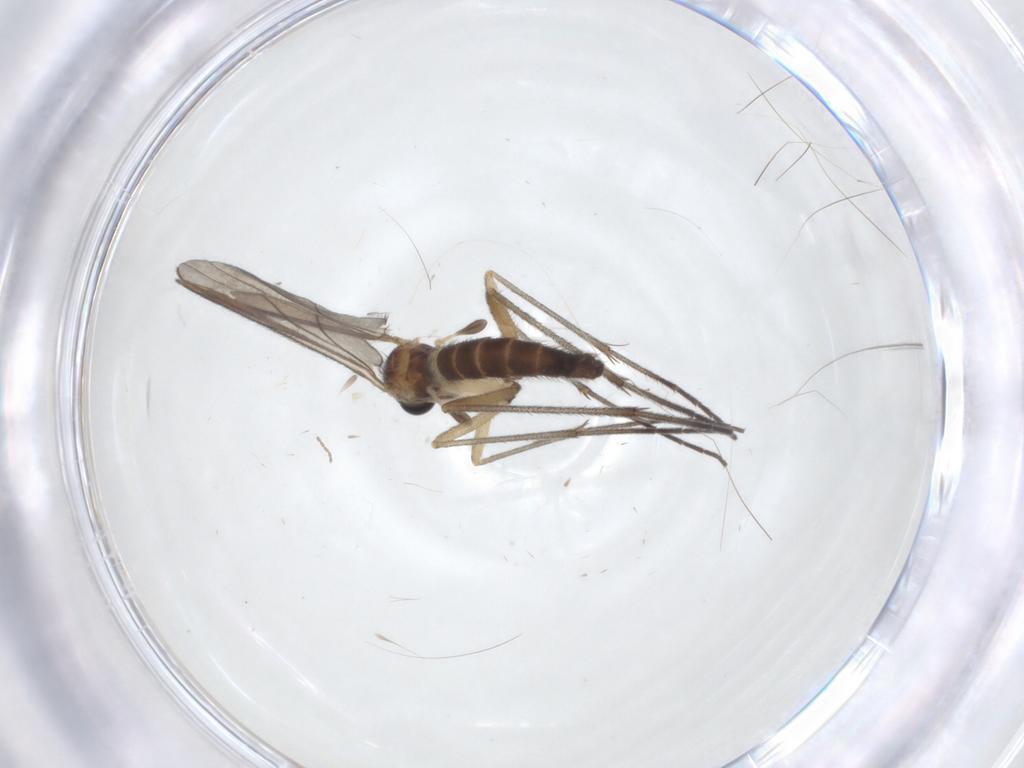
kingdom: Animalia
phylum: Arthropoda
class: Insecta
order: Diptera
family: Sciaridae
